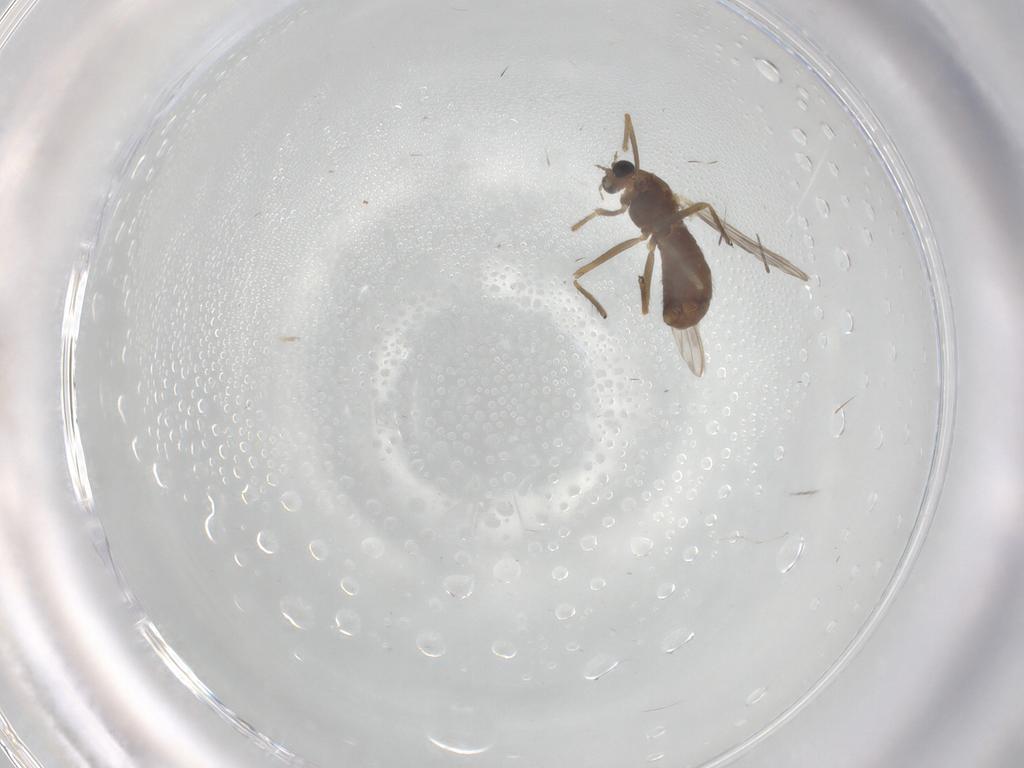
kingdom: Animalia
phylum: Arthropoda
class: Insecta
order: Diptera
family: Chironomidae
